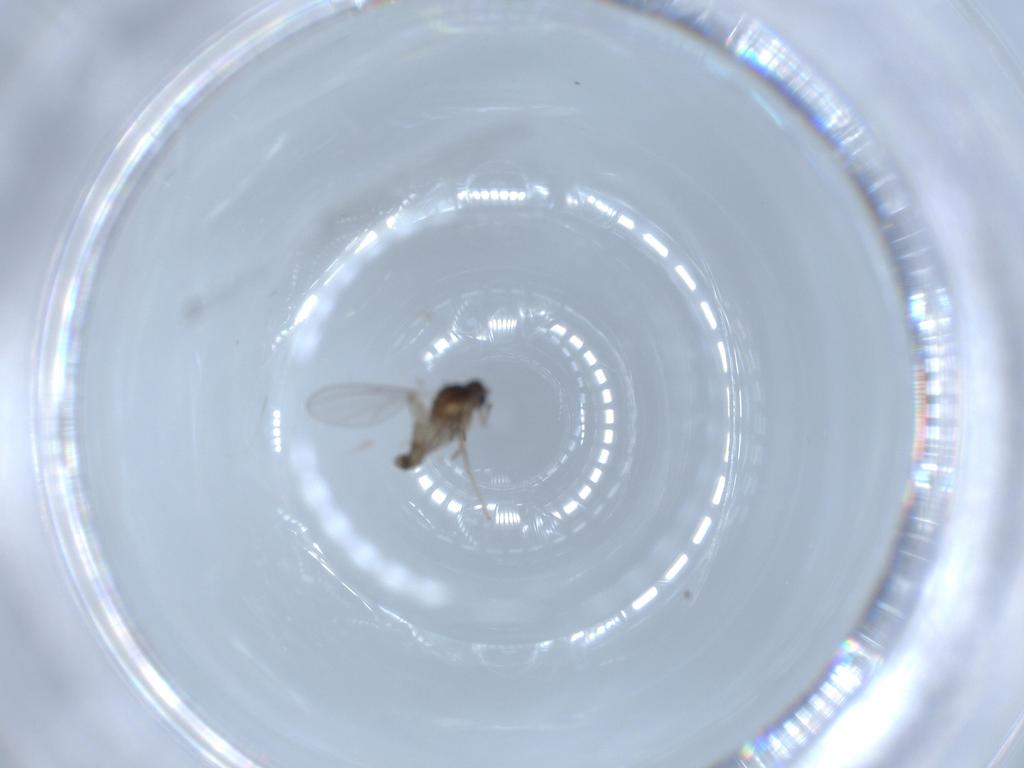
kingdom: Animalia
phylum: Arthropoda
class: Insecta
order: Diptera
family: Cecidomyiidae
